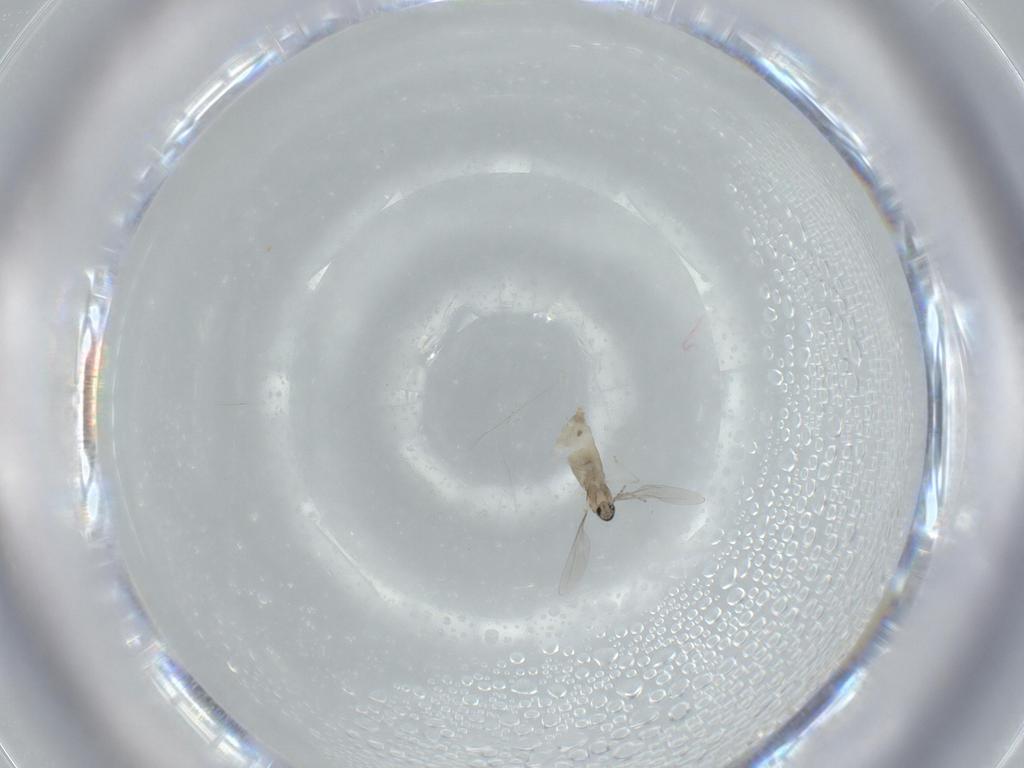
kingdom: Animalia
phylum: Arthropoda
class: Insecta
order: Diptera
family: Cecidomyiidae
